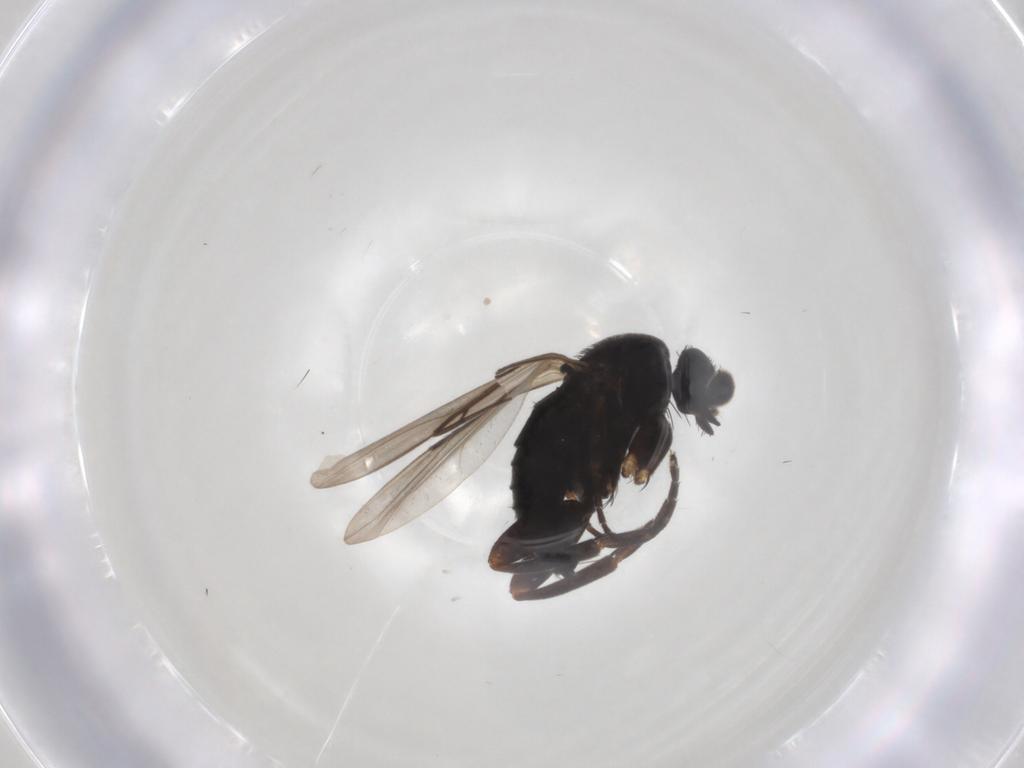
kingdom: Animalia
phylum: Arthropoda
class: Insecta
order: Diptera
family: Phoridae
